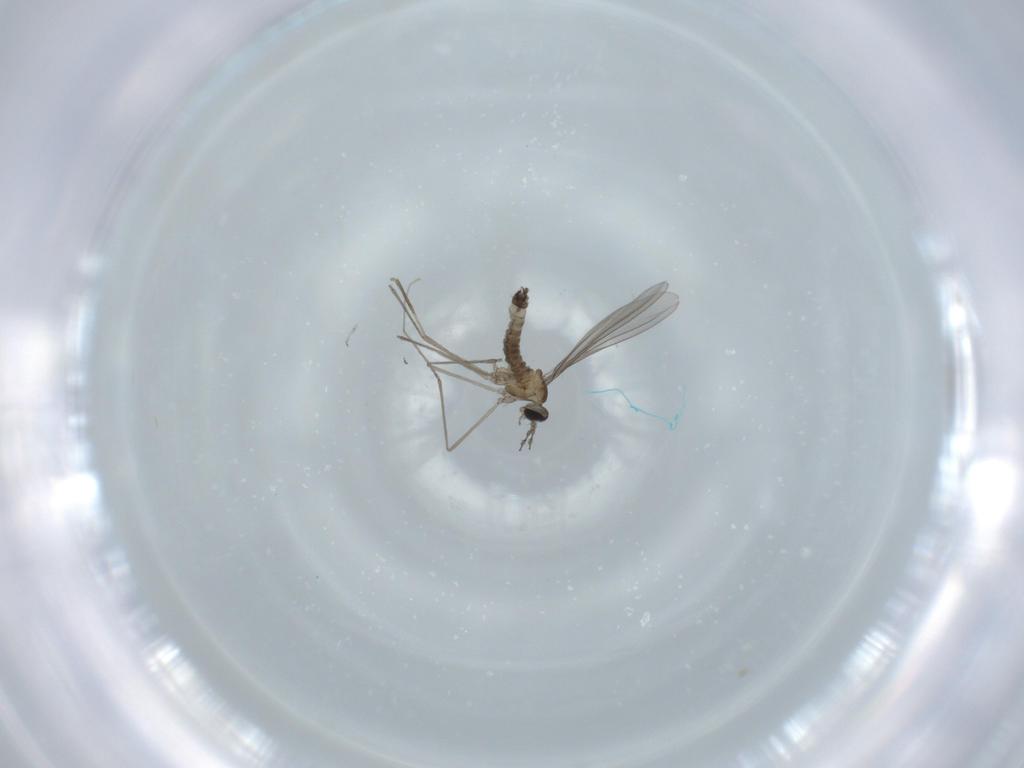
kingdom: Animalia
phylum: Arthropoda
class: Insecta
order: Diptera
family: Cecidomyiidae
